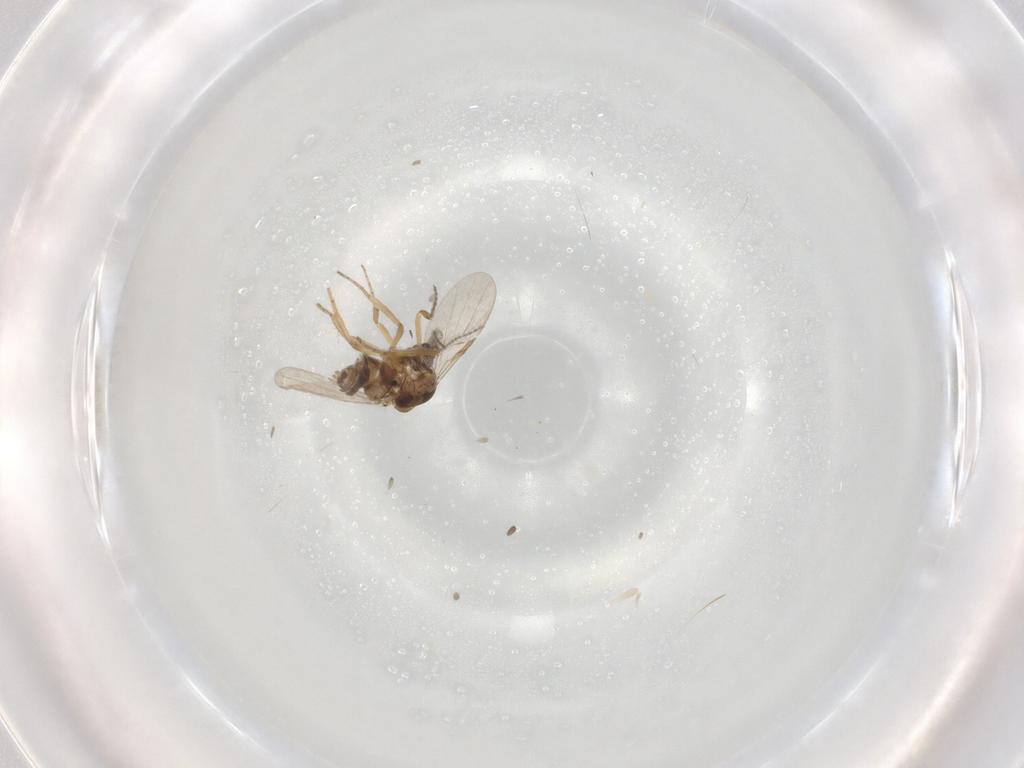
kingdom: Animalia
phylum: Arthropoda
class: Insecta
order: Diptera
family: Ceratopogonidae
